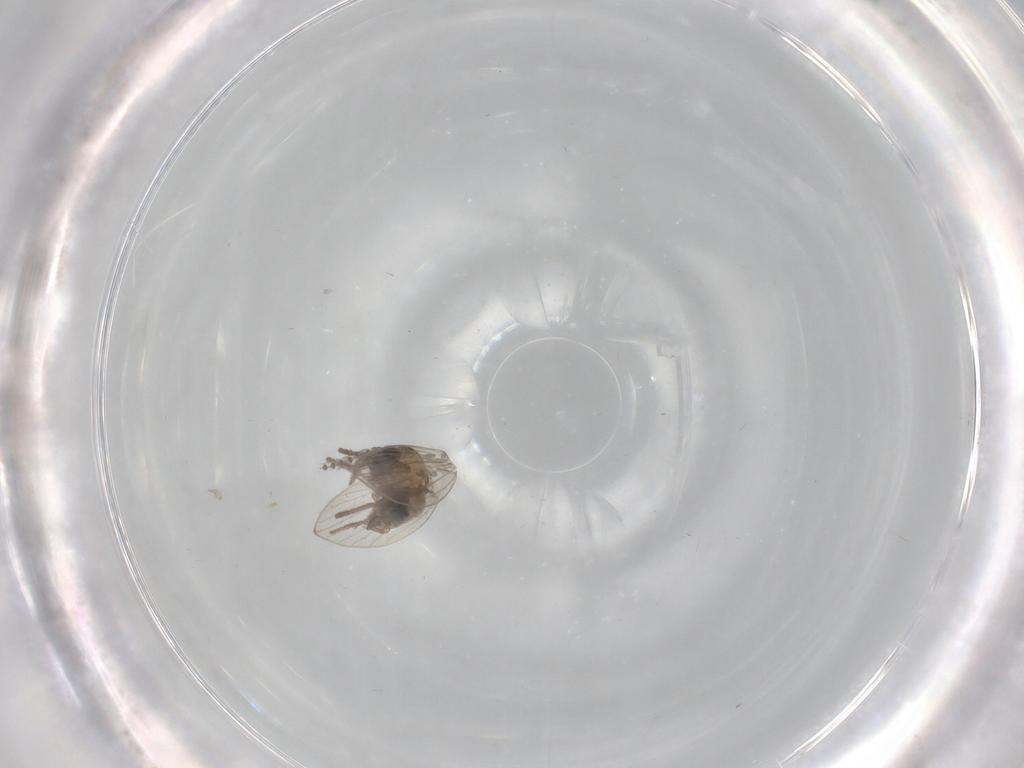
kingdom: Animalia
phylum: Arthropoda
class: Insecta
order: Diptera
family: Psychodidae
